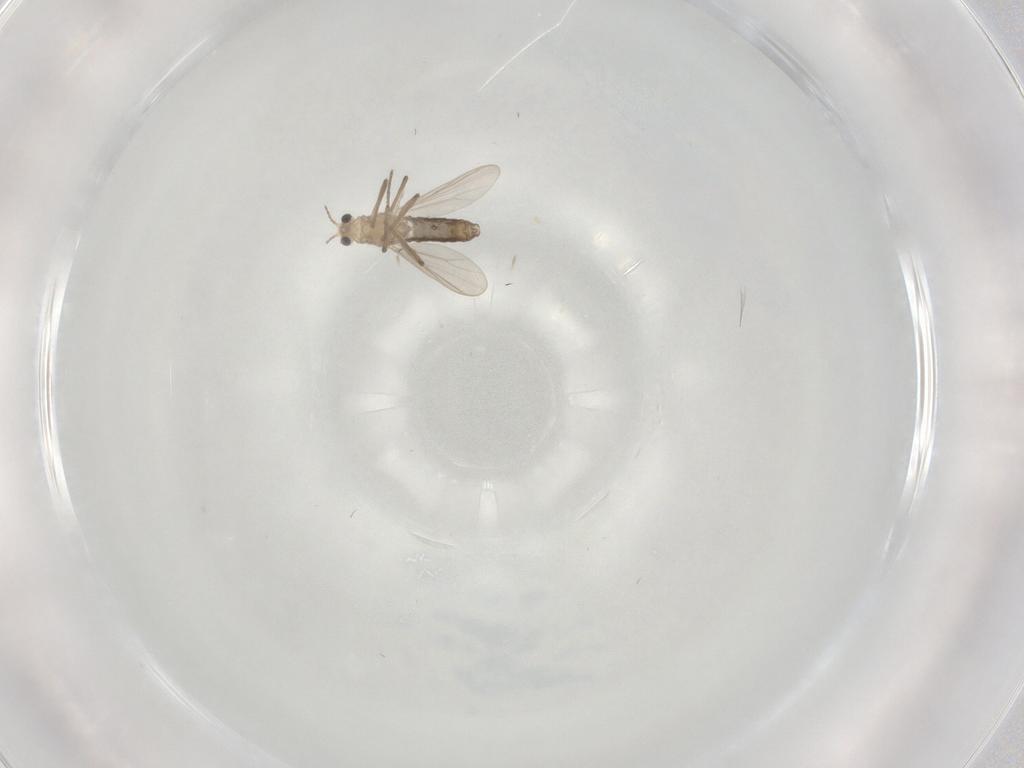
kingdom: Animalia
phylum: Arthropoda
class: Insecta
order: Diptera
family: Chironomidae
